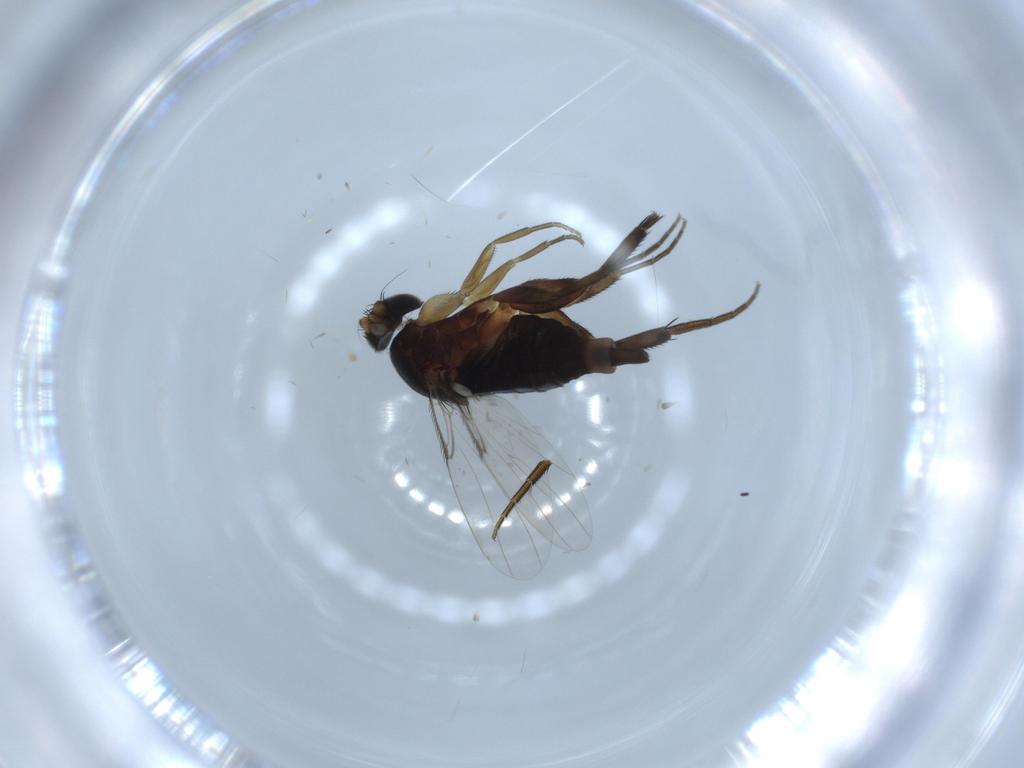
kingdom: Animalia
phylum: Arthropoda
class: Insecta
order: Diptera
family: Phoridae
